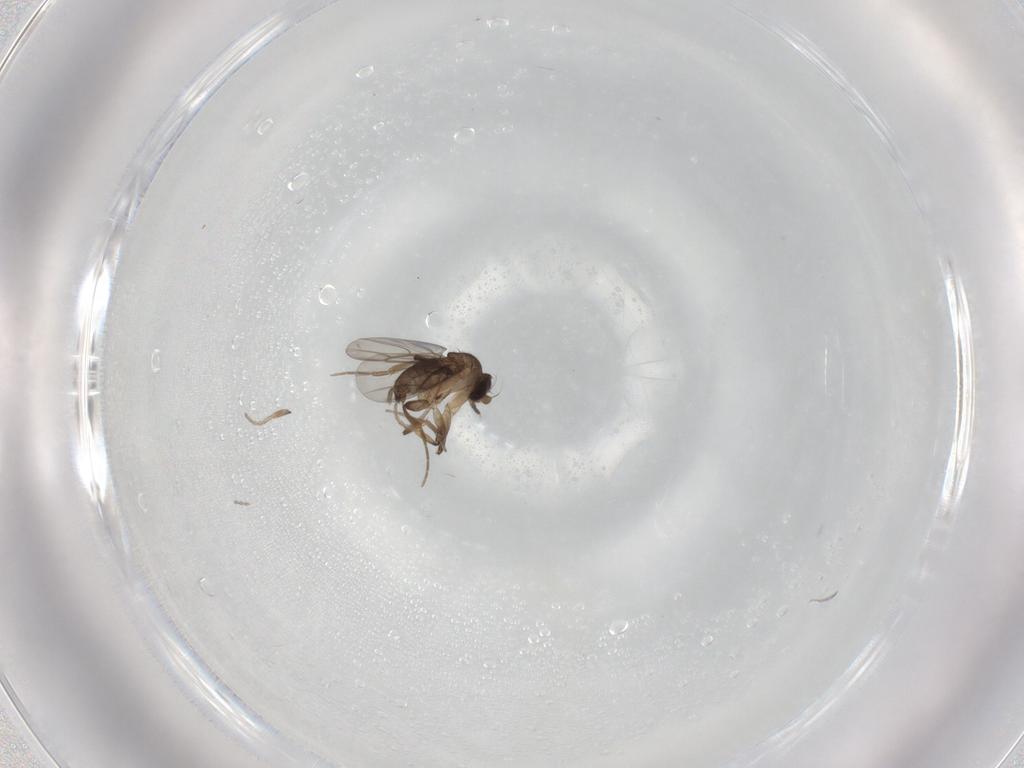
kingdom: Animalia
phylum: Arthropoda
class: Insecta
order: Diptera
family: Phoridae
